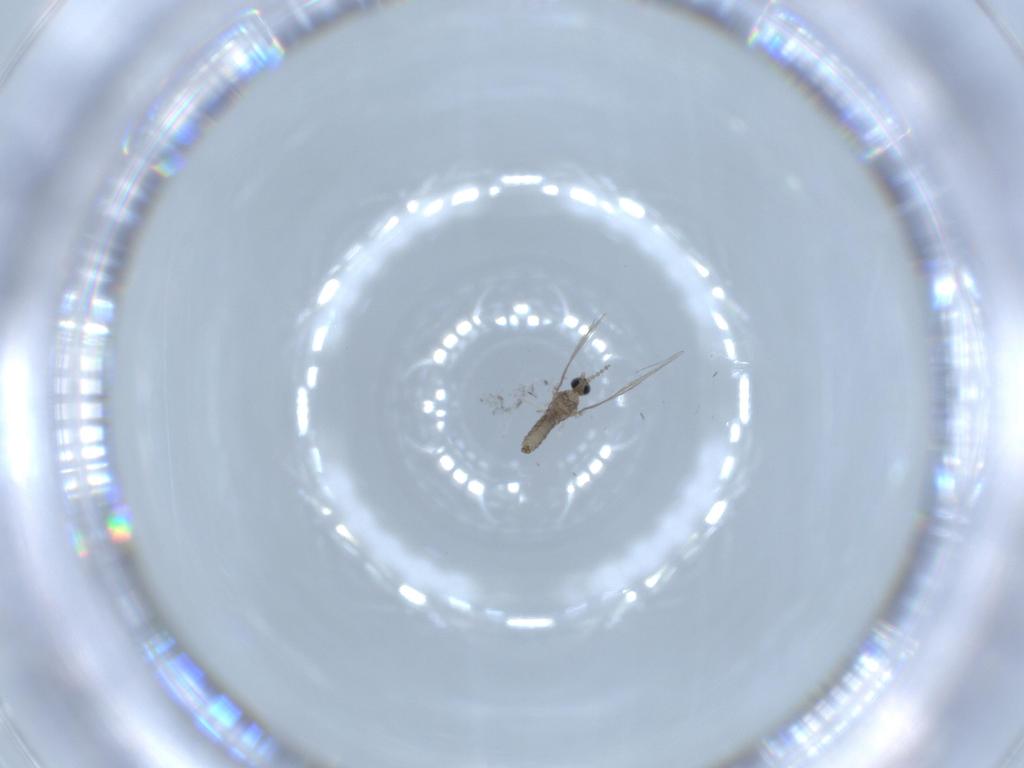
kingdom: Animalia
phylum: Arthropoda
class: Insecta
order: Diptera
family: Cecidomyiidae
